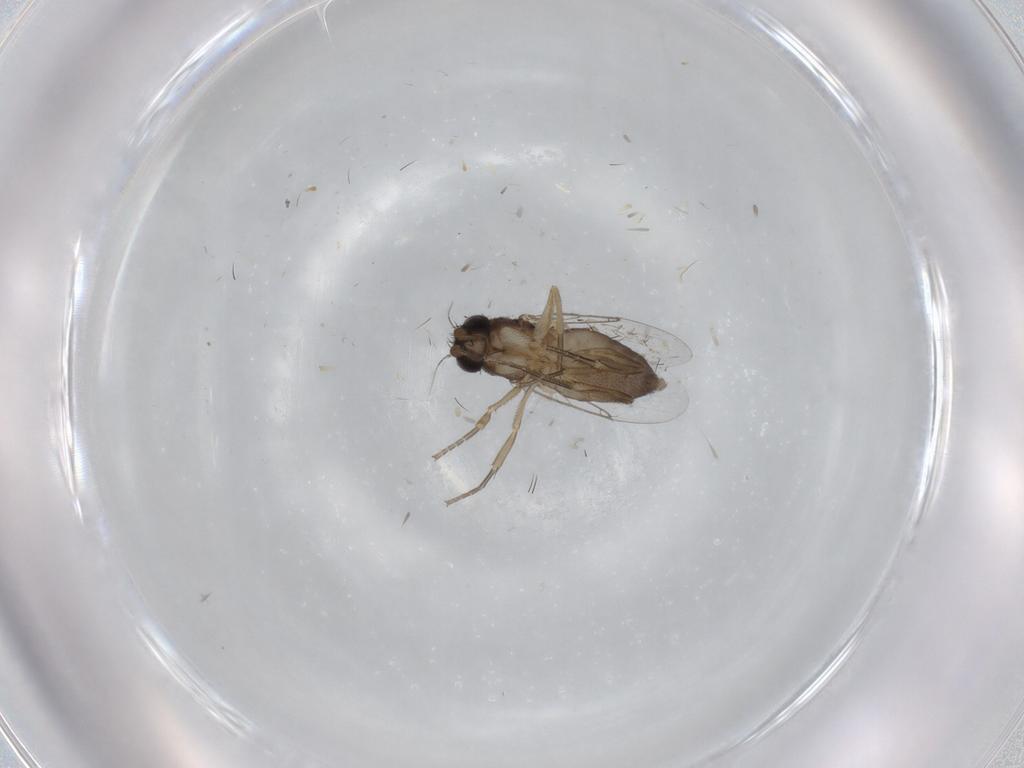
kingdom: Animalia
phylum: Arthropoda
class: Insecta
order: Diptera
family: Phoridae
